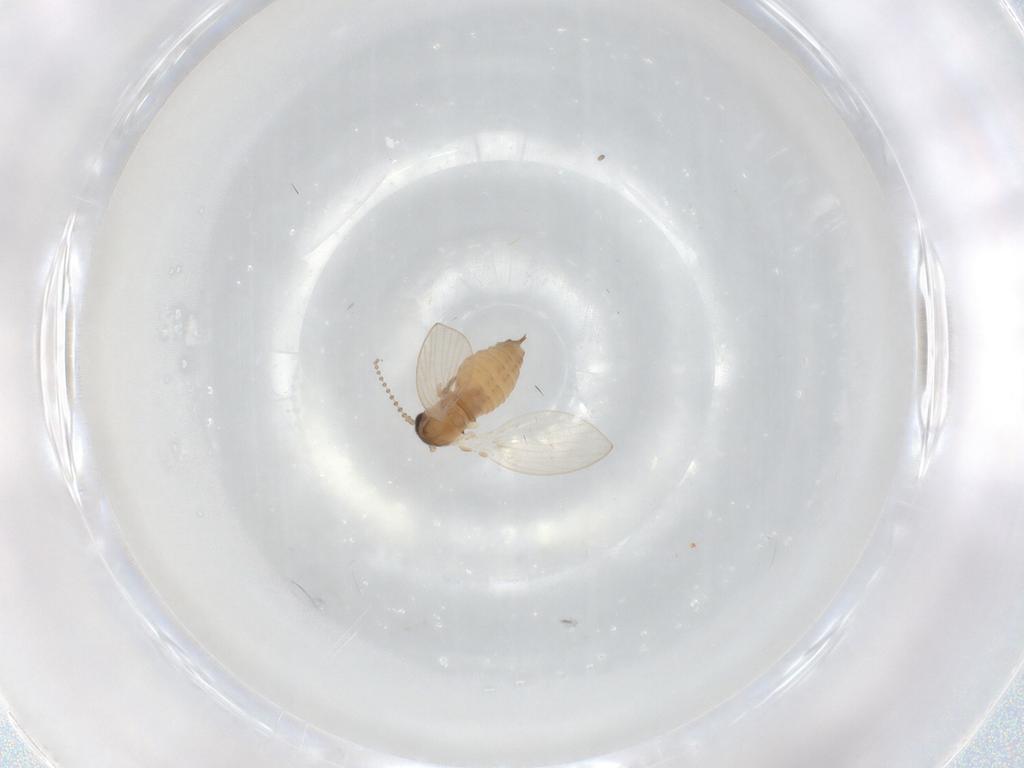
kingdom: Animalia
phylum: Arthropoda
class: Insecta
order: Diptera
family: Psychodidae
